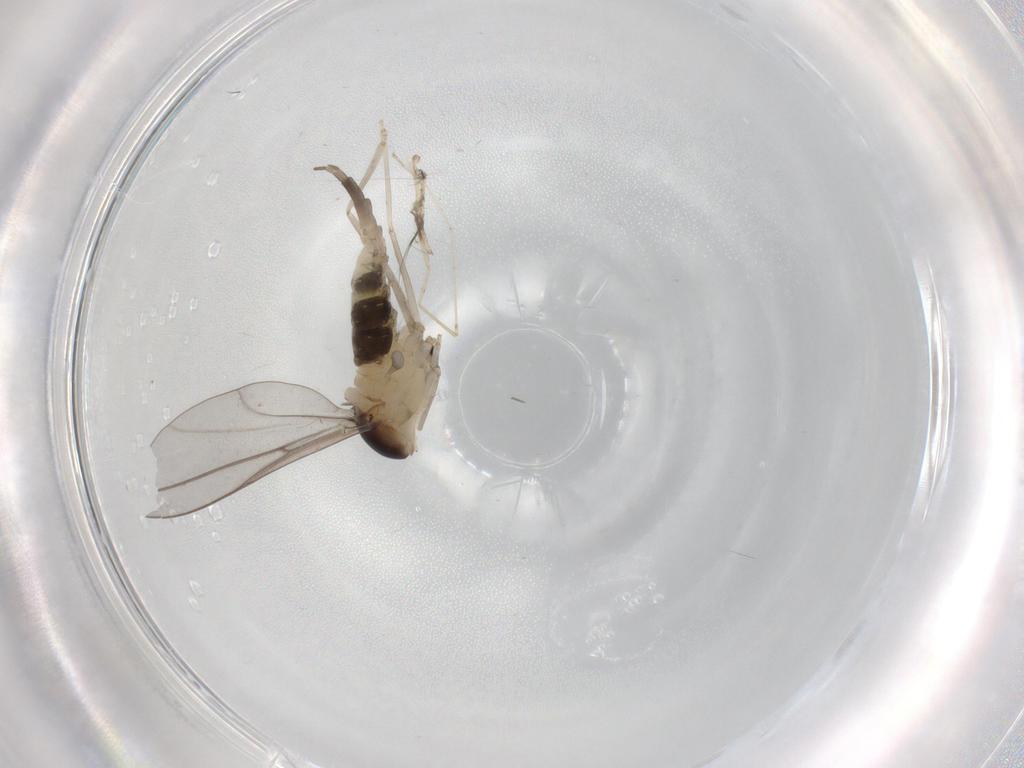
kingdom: Animalia
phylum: Arthropoda
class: Insecta
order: Diptera
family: Cecidomyiidae
